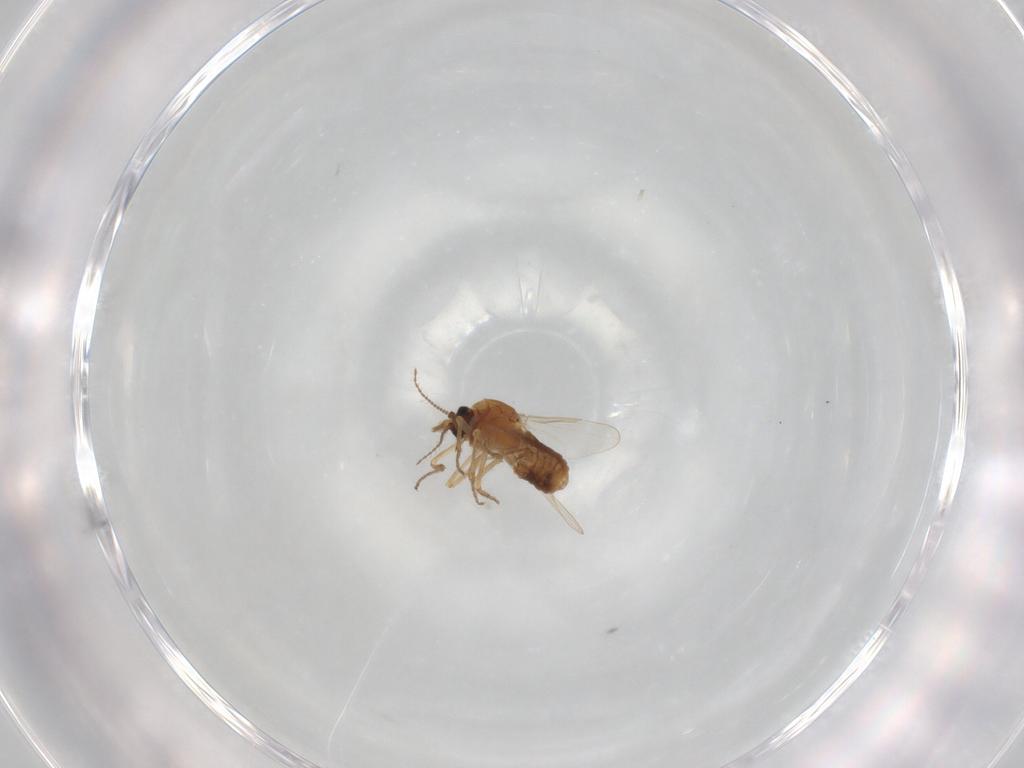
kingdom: Animalia
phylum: Arthropoda
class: Insecta
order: Diptera
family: Ceratopogonidae
